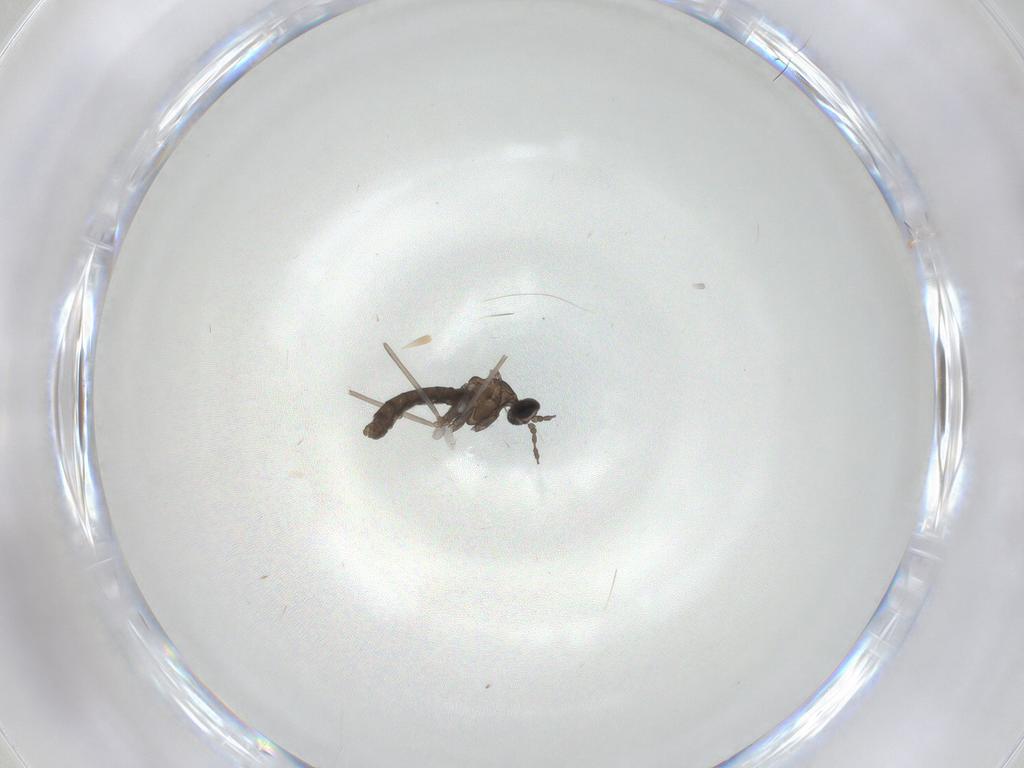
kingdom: Animalia
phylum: Arthropoda
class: Insecta
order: Diptera
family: Cecidomyiidae
